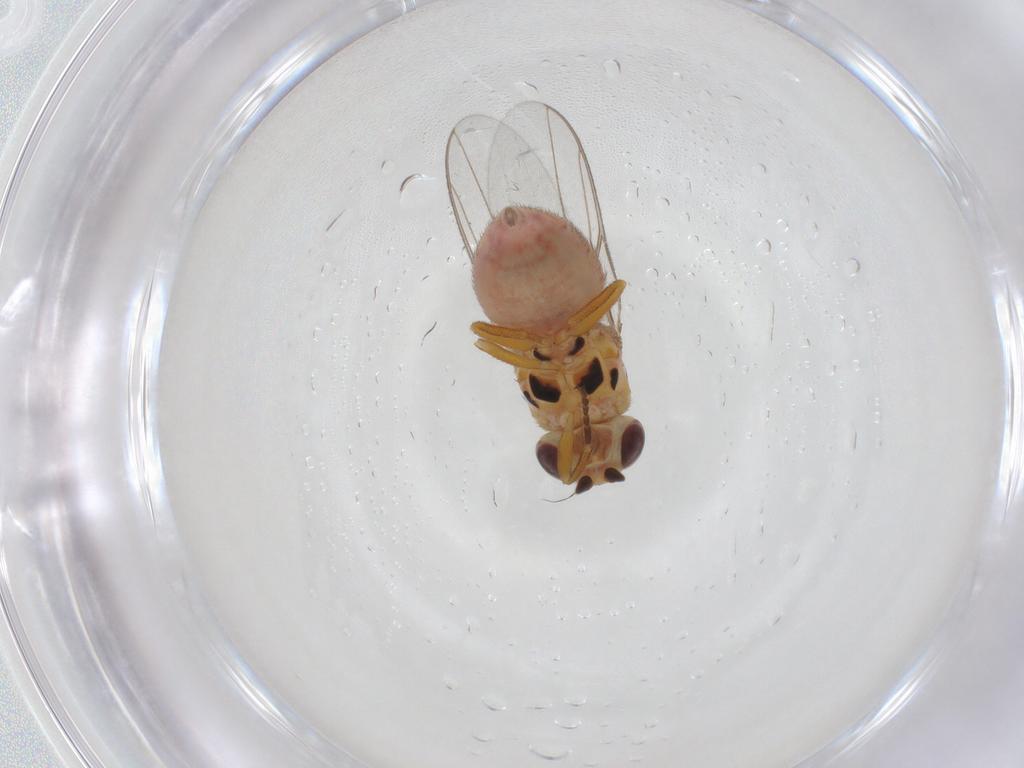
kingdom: Animalia
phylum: Arthropoda
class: Insecta
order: Diptera
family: Chloropidae
